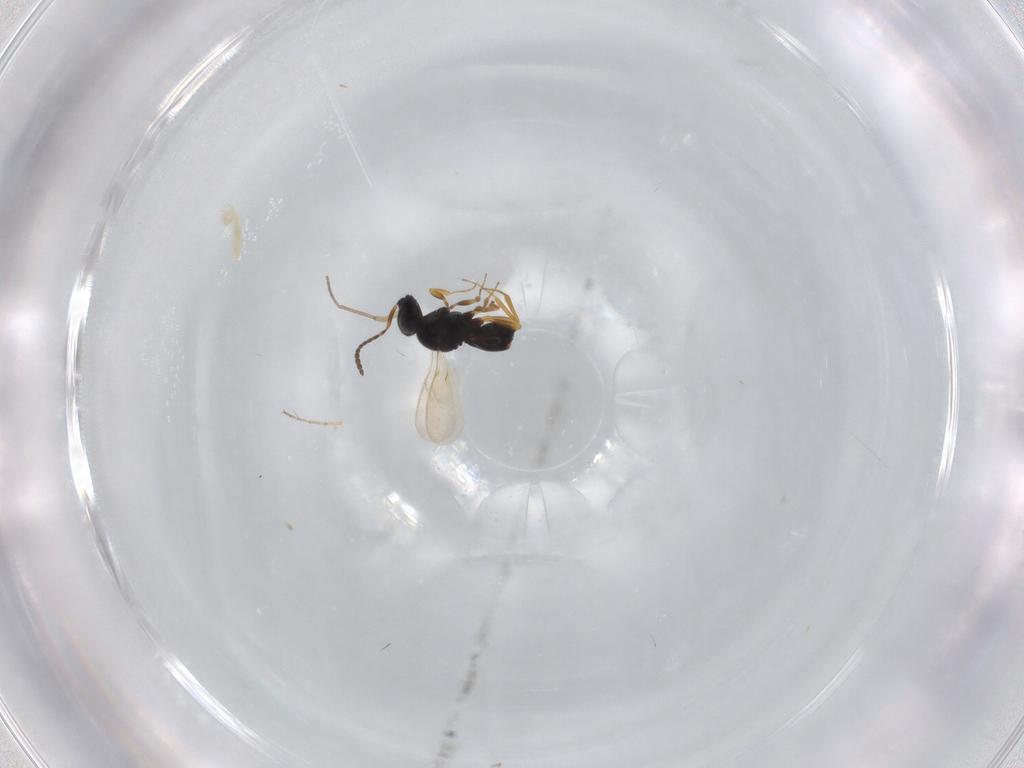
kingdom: Animalia
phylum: Arthropoda
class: Insecta
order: Hymenoptera
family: Scelionidae
